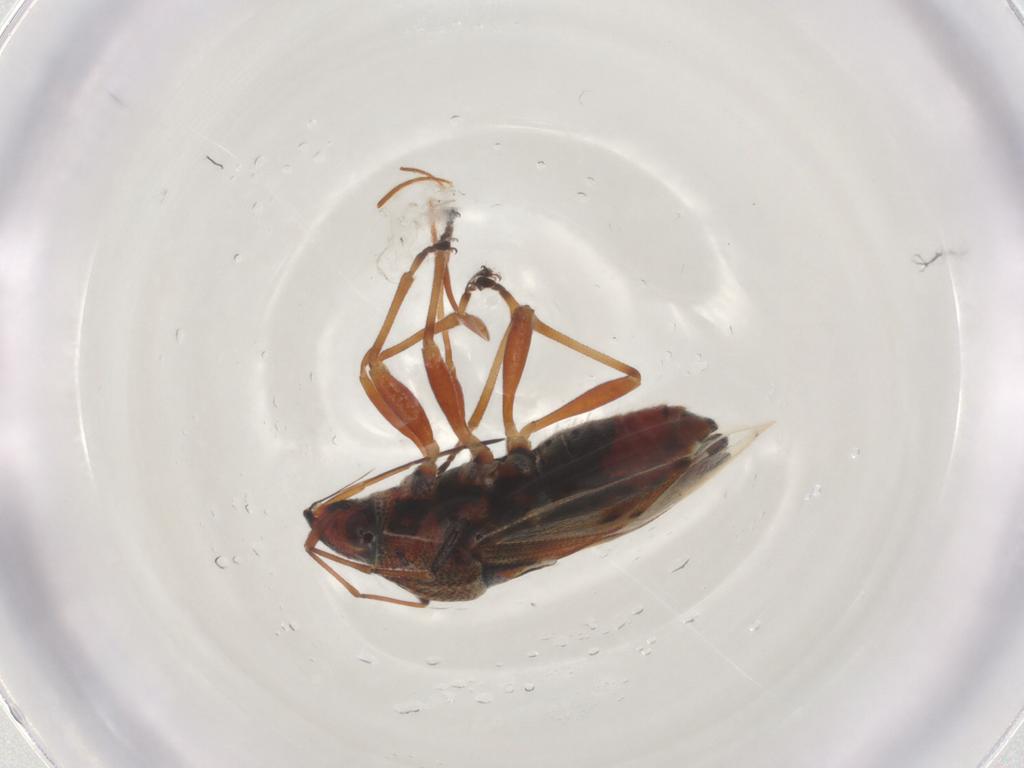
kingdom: Animalia
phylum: Arthropoda
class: Insecta
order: Hemiptera
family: Lygaeidae
